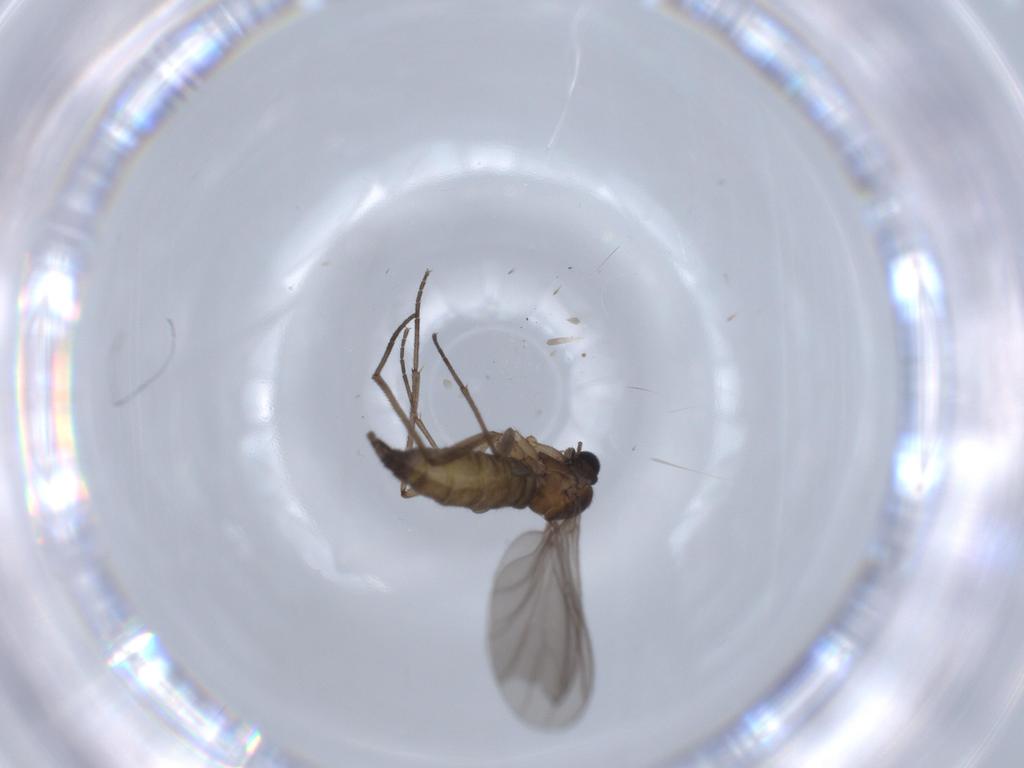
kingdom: Animalia
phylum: Arthropoda
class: Insecta
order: Diptera
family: Sciaridae
